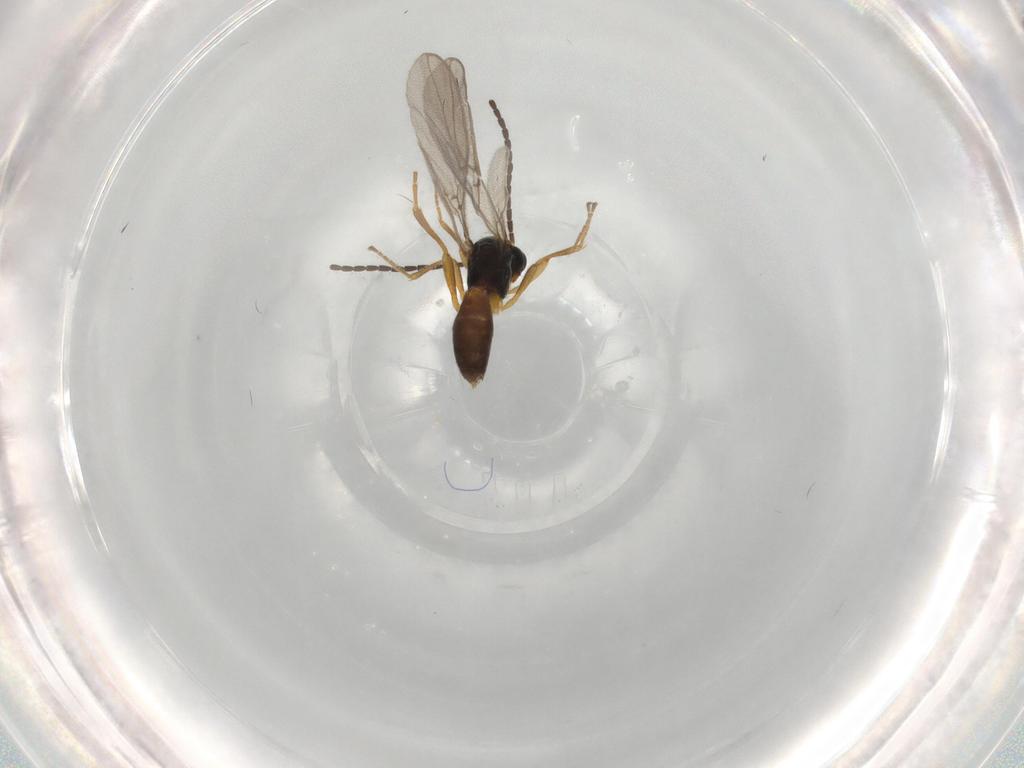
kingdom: Animalia
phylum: Arthropoda
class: Insecta
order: Hymenoptera
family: Braconidae
